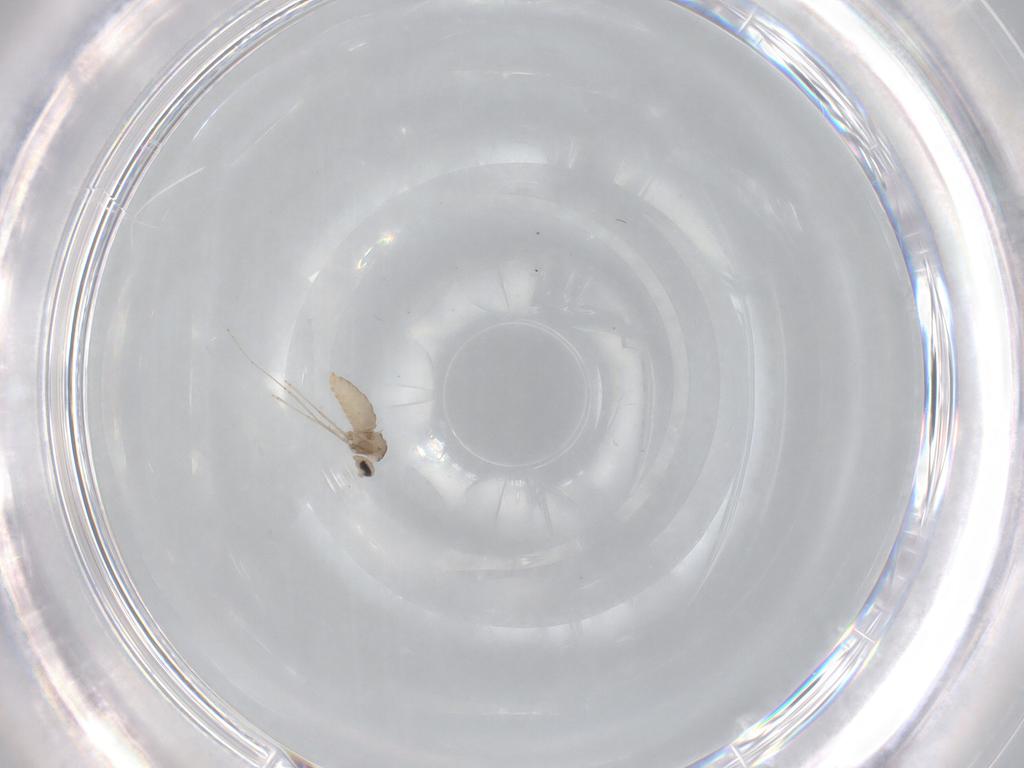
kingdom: Animalia
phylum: Arthropoda
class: Insecta
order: Diptera
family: Cecidomyiidae
